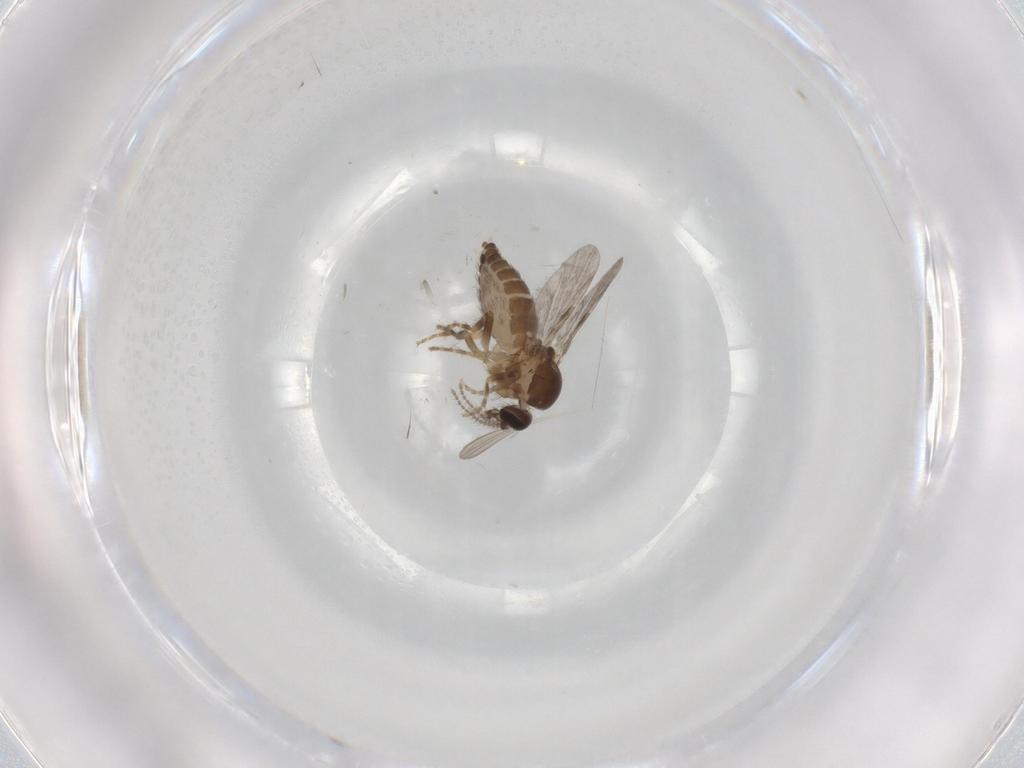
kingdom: Animalia
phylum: Arthropoda
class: Insecta
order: Diptera
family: Ceratopogonidae
